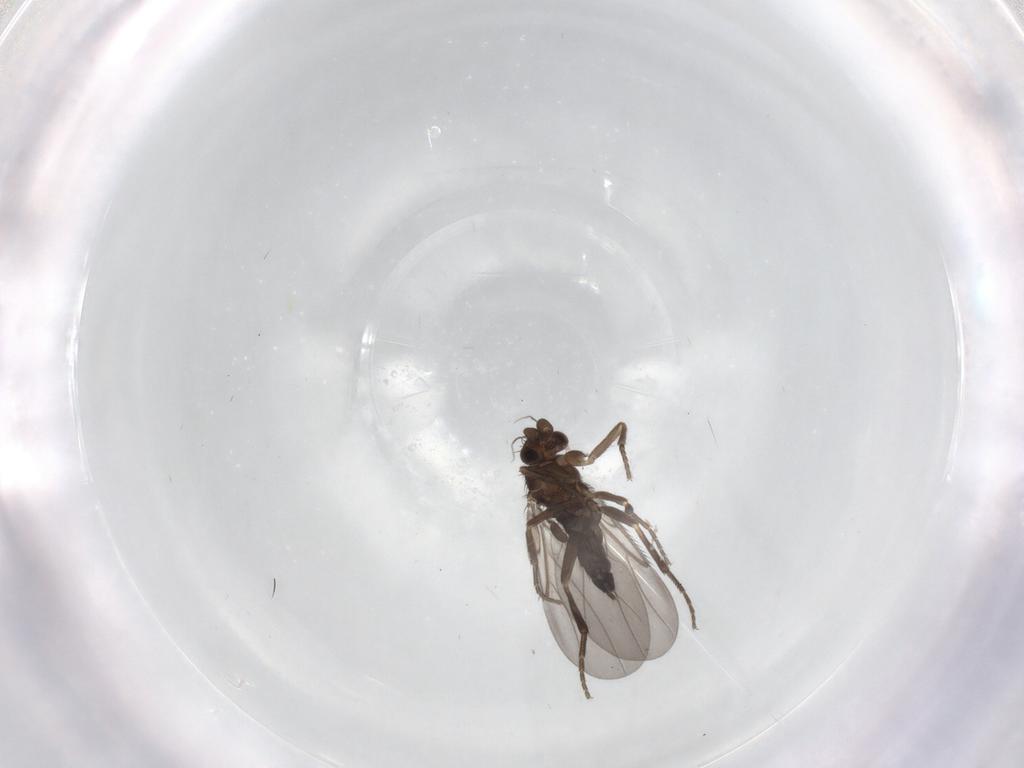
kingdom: Animalia
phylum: Arthropoda
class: Insecta
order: Diptera
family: Phoridae
